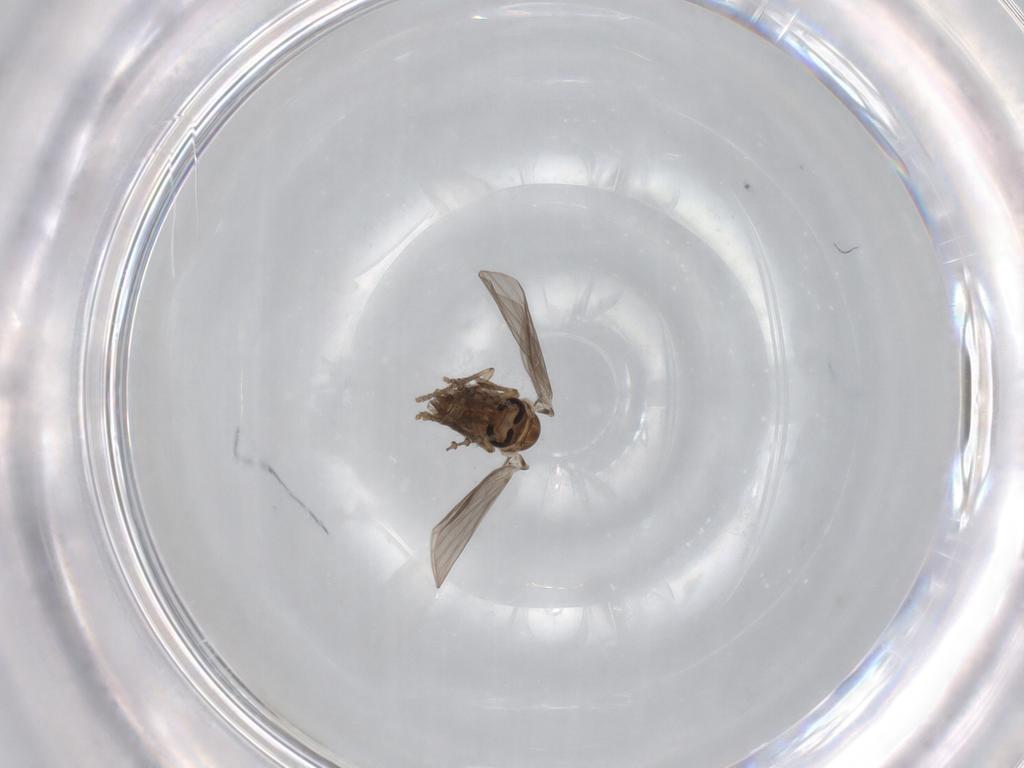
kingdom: Animalia
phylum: Arthropoda
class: Insecta
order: Diptera
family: Psychodidae
